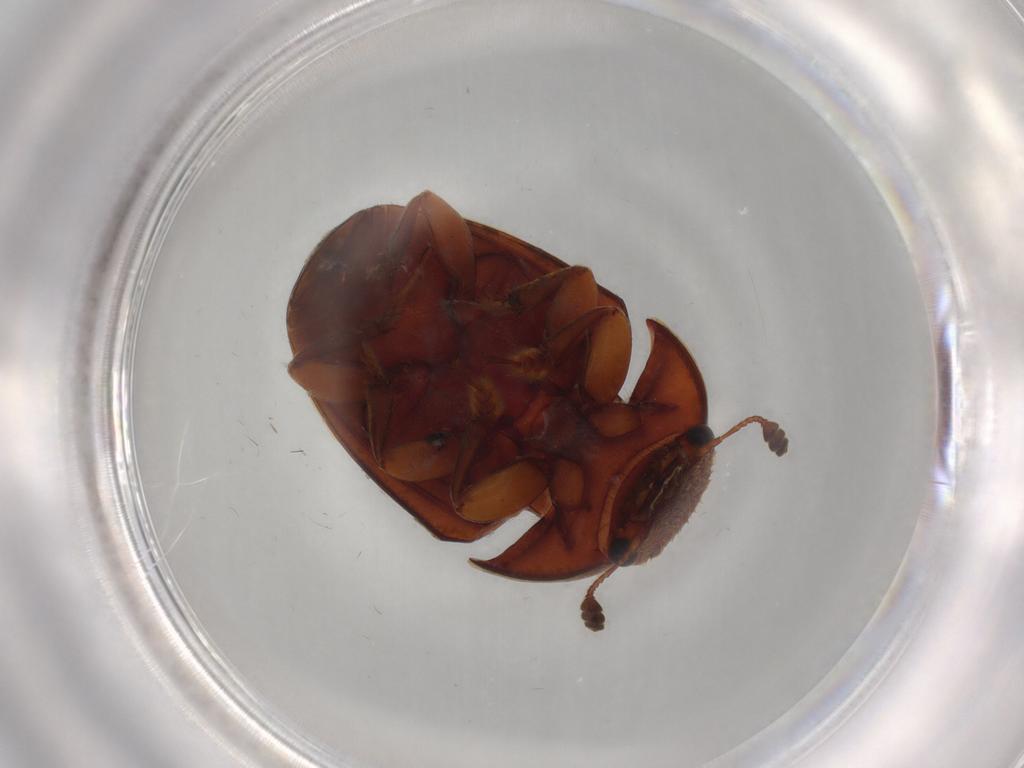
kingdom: Animalia
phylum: Arthropoda
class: Insecta
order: Coleoptera
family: Nitidulidae
